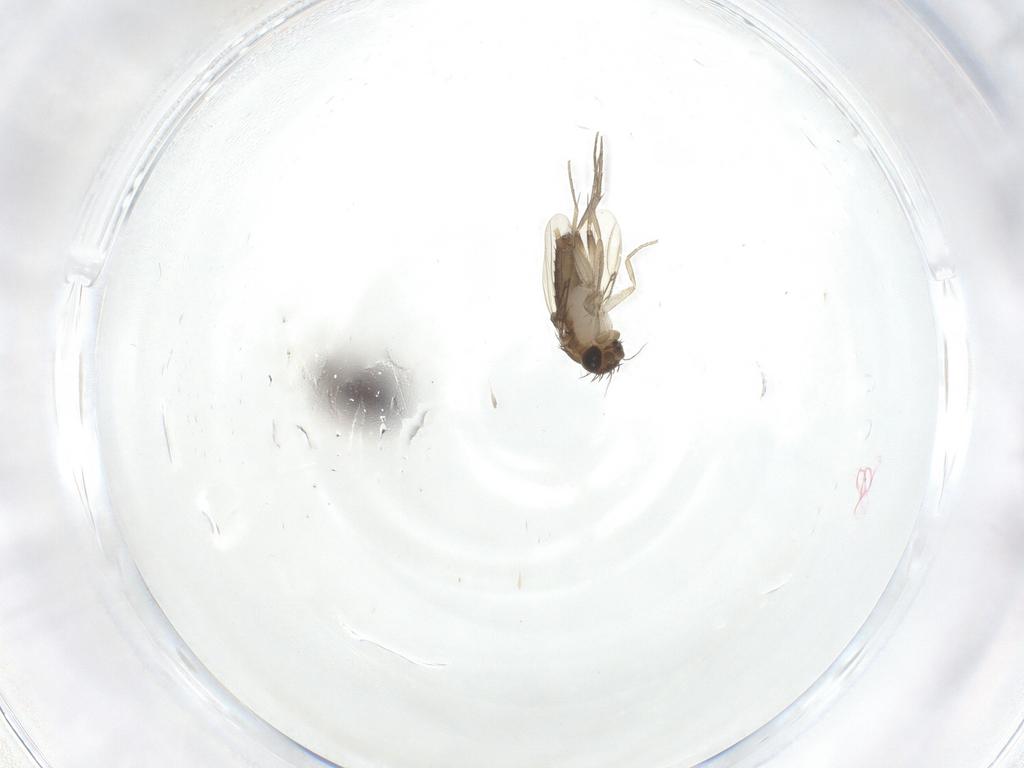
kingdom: Animalia
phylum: Arthropoda
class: Insecta
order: Diptera
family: Phoridae
